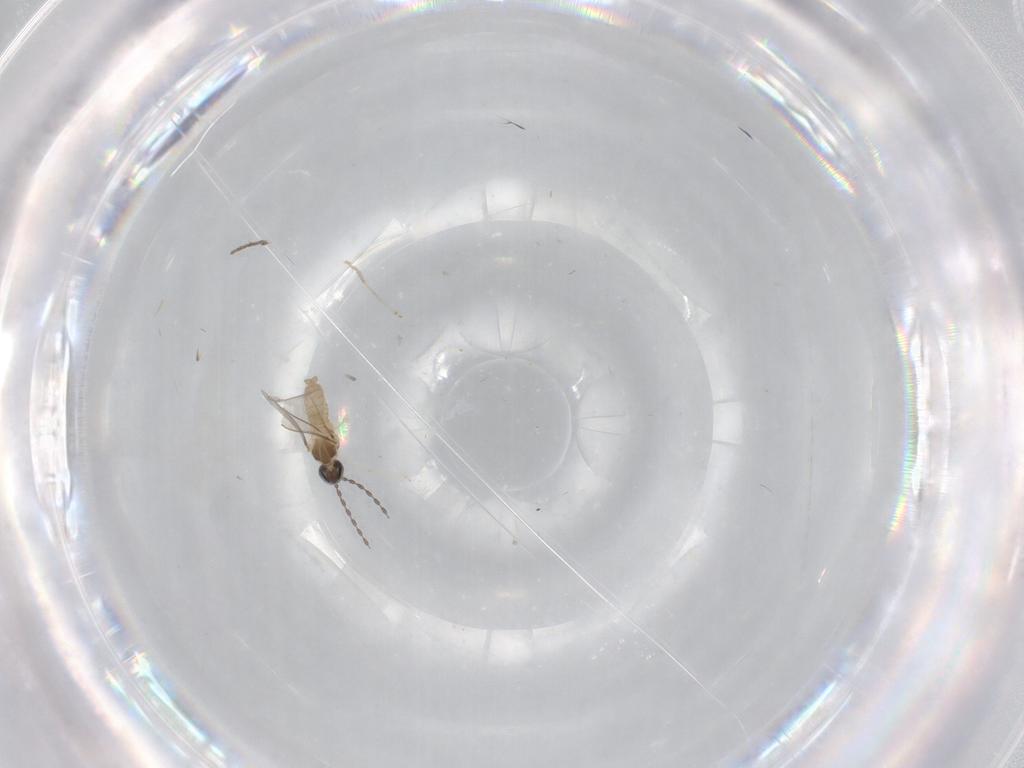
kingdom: Animalia
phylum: Arthropoda
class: Insecta
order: Diptera
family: Cecidomyiidae
